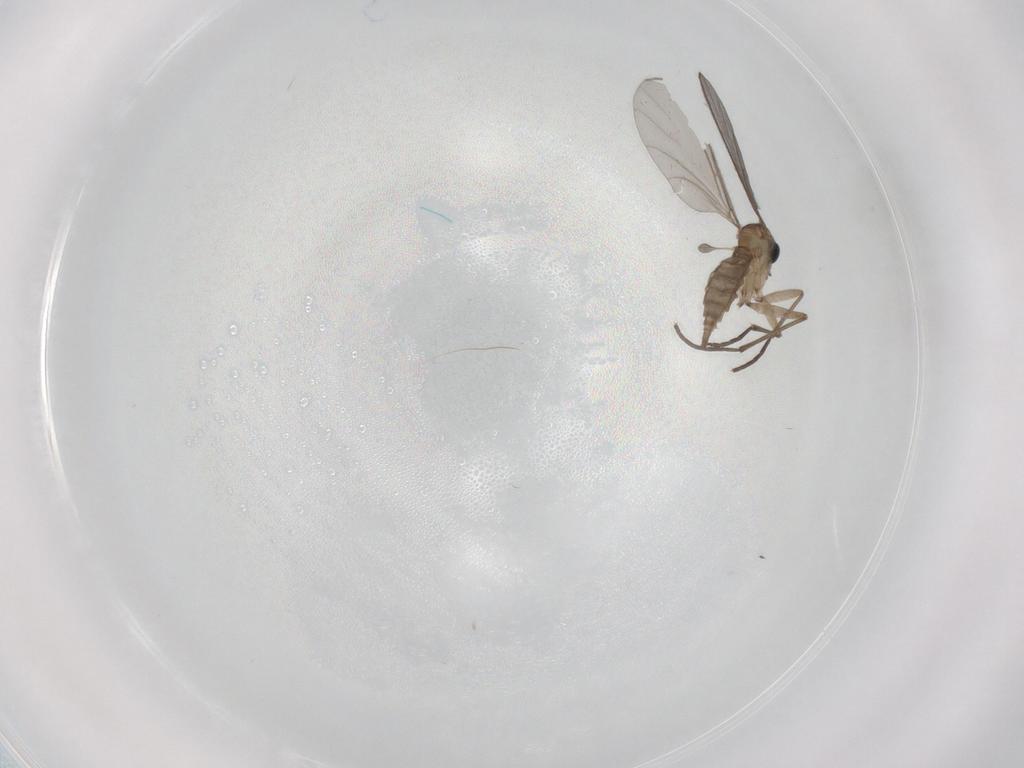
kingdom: Animalia
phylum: Arthropoda
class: Insecta
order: Diptera
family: Sciaridae
